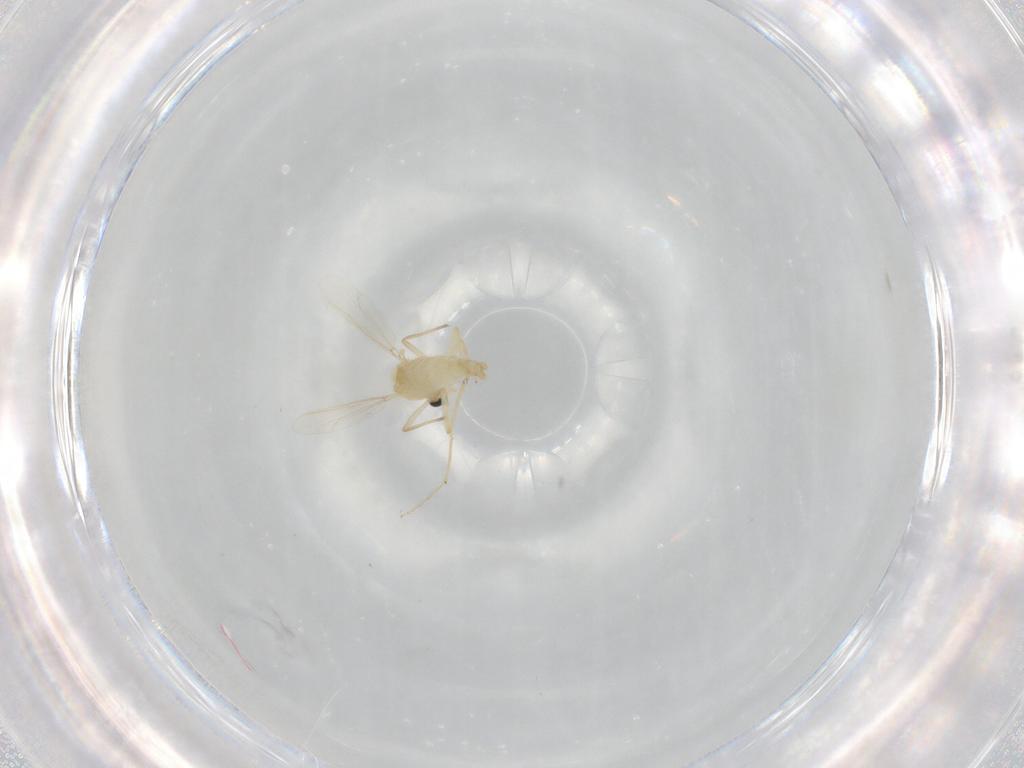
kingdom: Animalia
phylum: Arthropoda
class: Insecta
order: Diptera
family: Chironomidae
